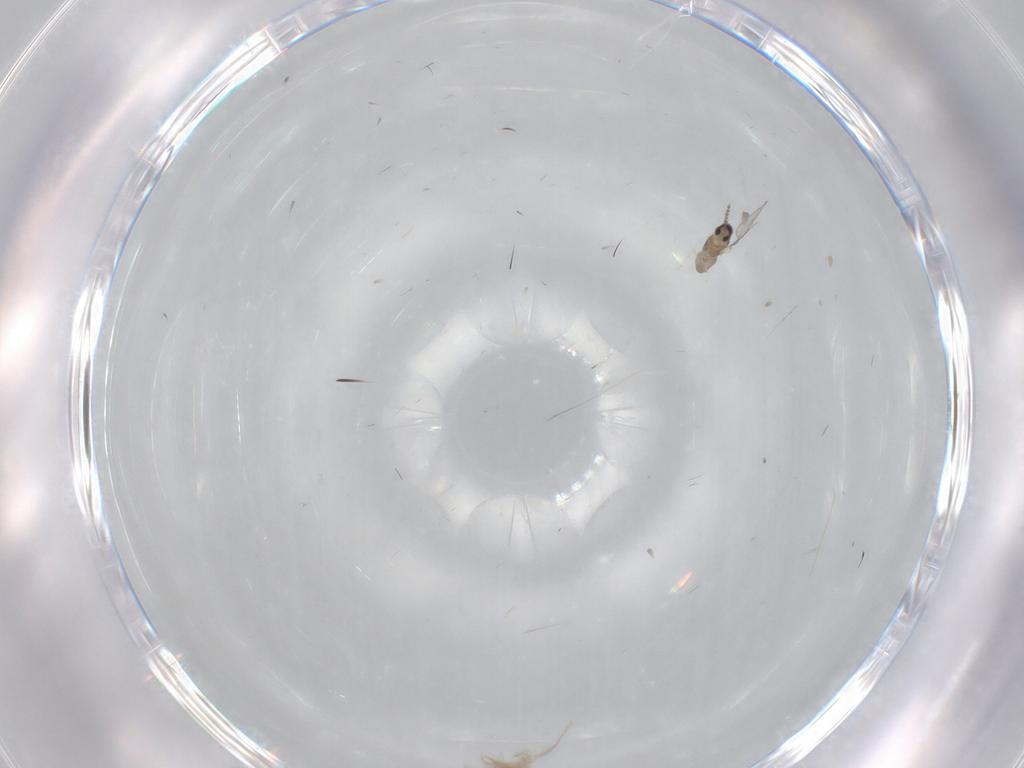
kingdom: Animalia
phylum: Arthropoda
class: Insecta
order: Diptera
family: Cecidomyiidae
